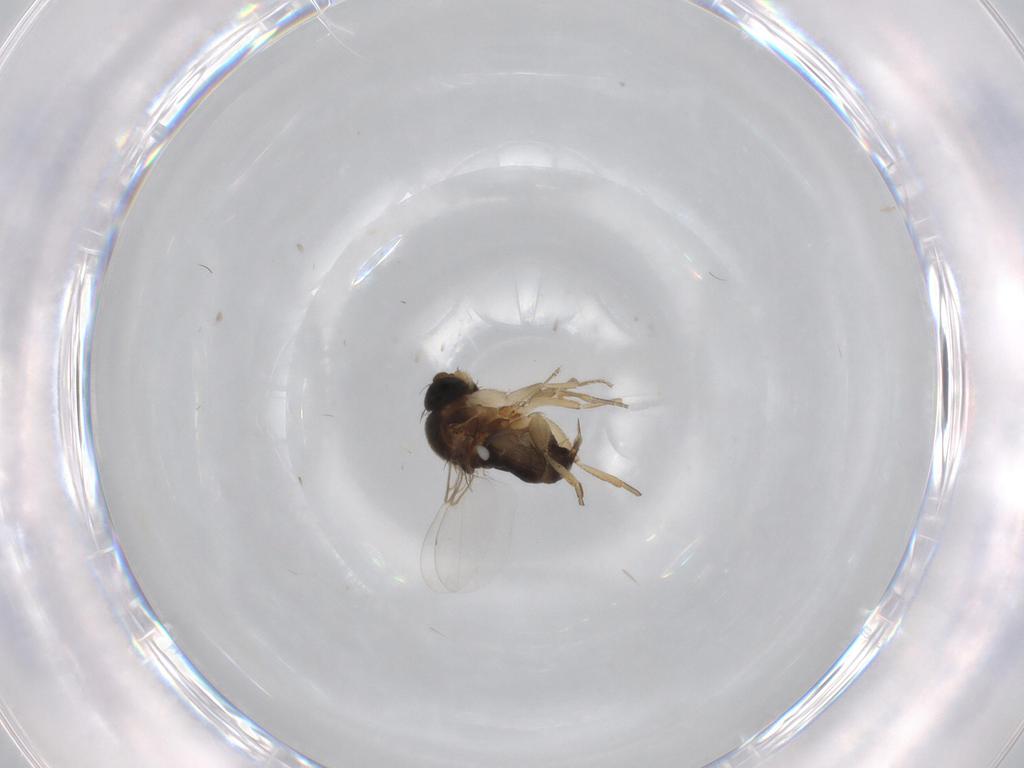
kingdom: Animalia
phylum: Arthropoda
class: Insecta
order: Diptera
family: Phoridae
